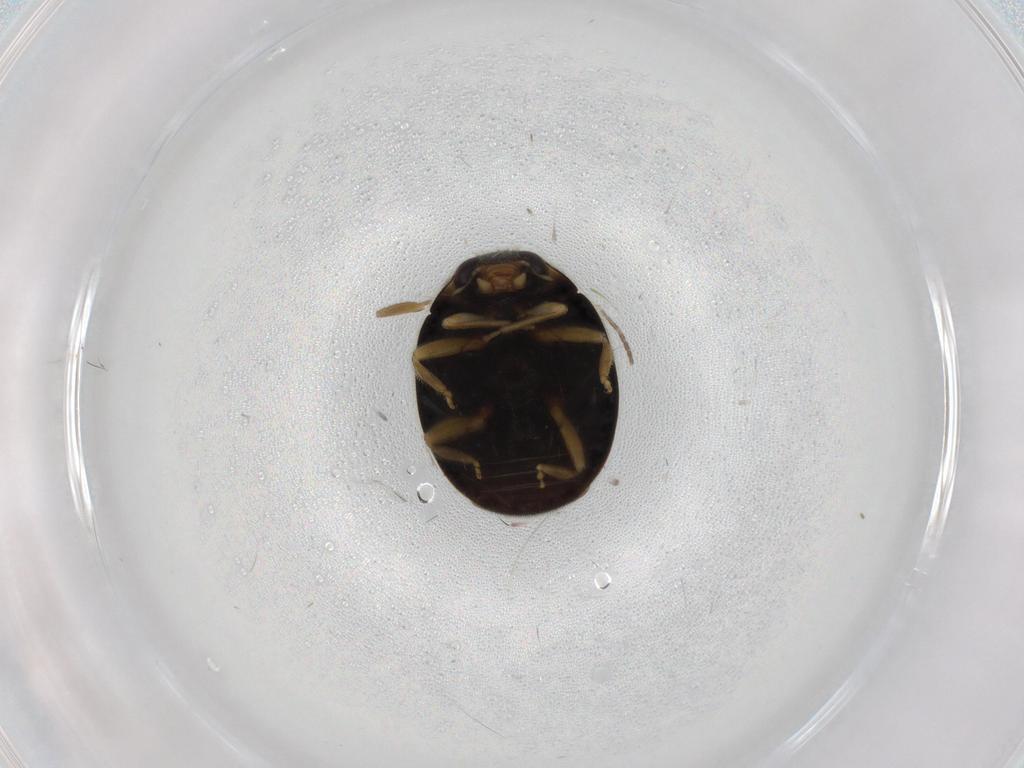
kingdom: Animalia
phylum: Arthropoda
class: Insecta
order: Coleoptera
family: Coccinellidae
